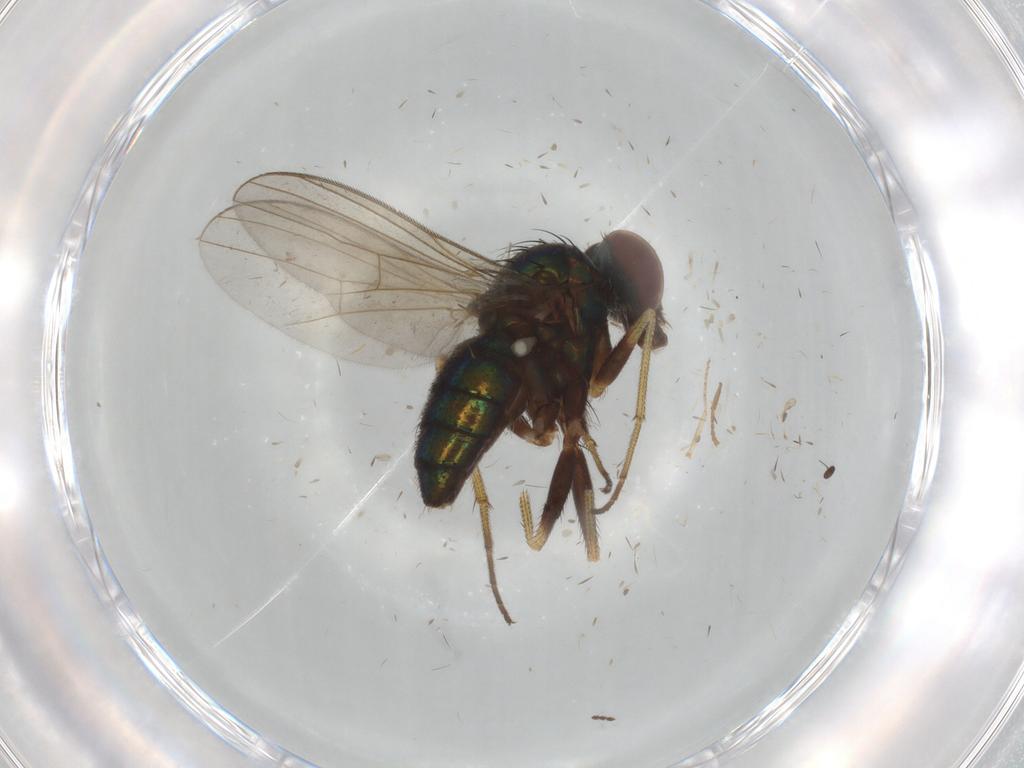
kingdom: Animalia
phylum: Arthropoda
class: Insecta
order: Diptera
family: Dolichopodidae
